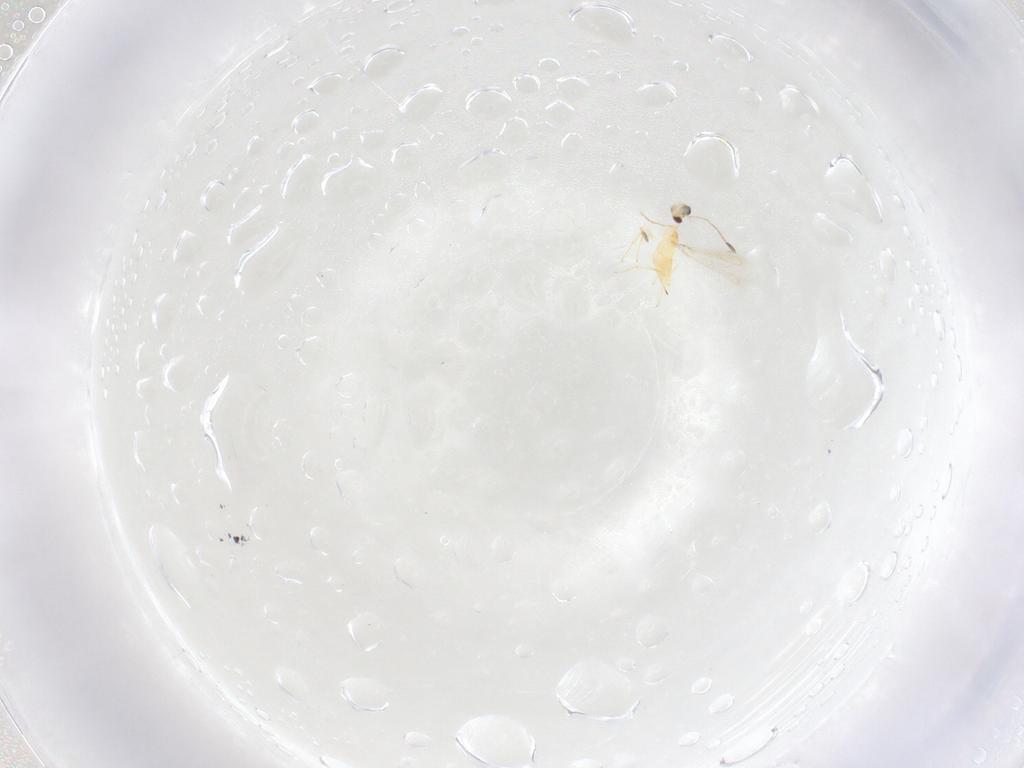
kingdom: Animalia
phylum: Arthropoda
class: Insecta
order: Hymenoptera
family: Mymaridae
